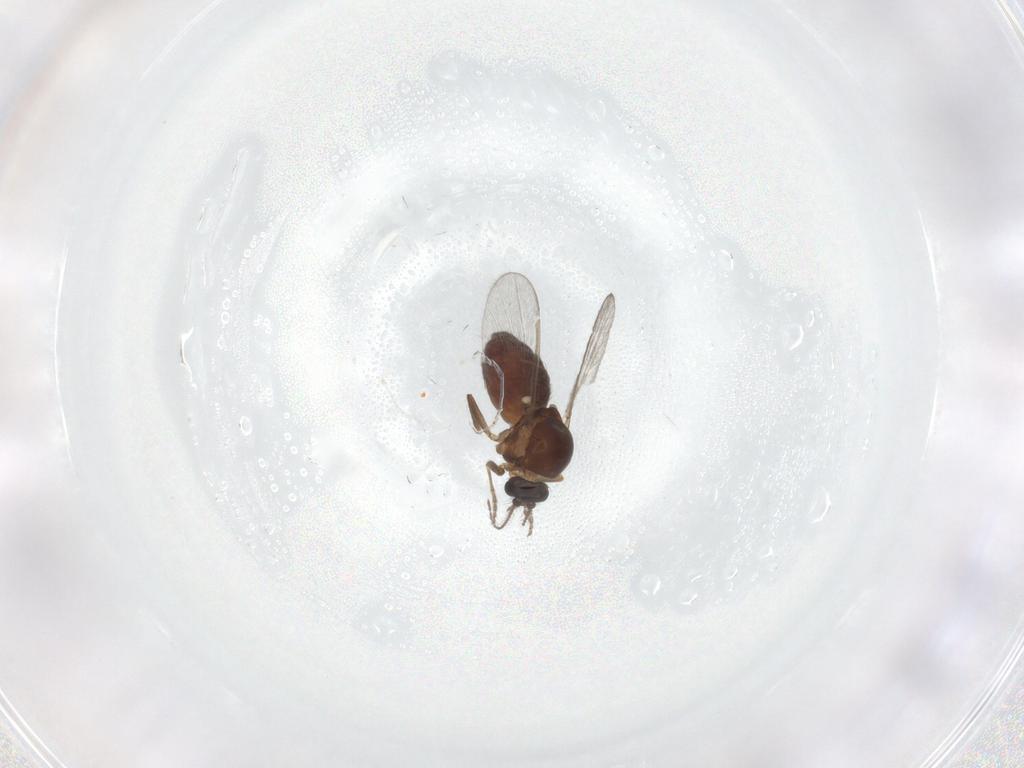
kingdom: Animalia
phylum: Arthropoda
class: Insecta
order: Diptera
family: Ceratopogonidae
